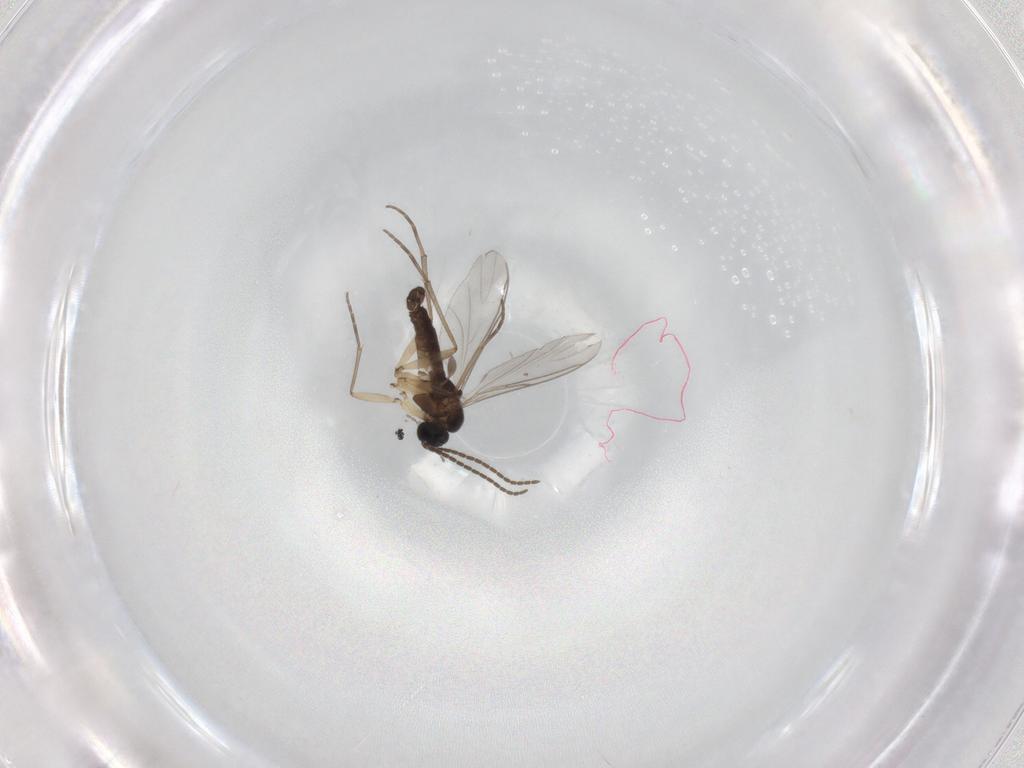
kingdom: Animalia
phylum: Arthropoda
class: Insecta
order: Diptera
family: Sciaridae
